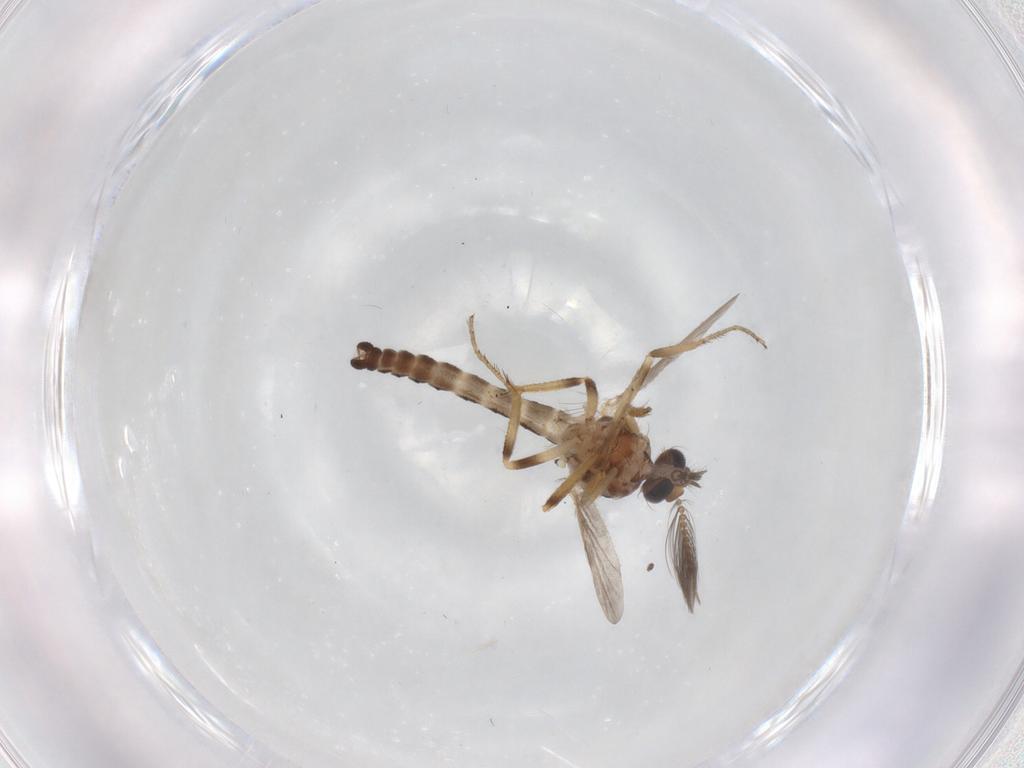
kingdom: Animalia
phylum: Arthropoda
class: Insecta
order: Diptera
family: Ceratopogonidae
